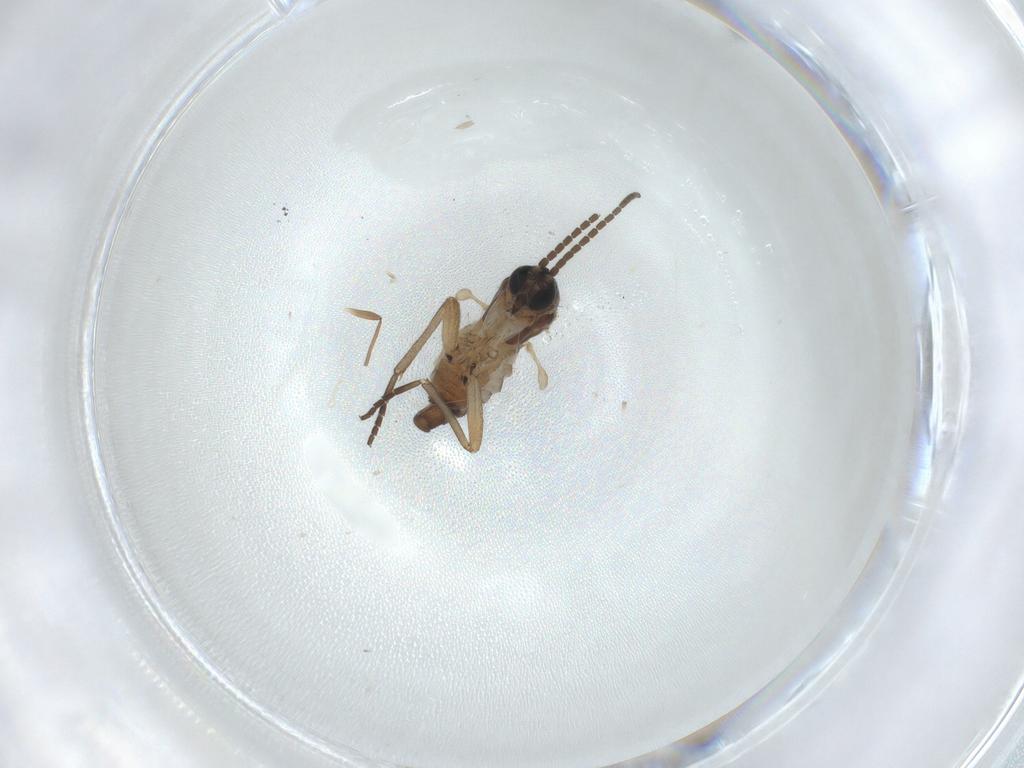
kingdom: Animalia
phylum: Arthropoda
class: Insecta
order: Diptera
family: Sciaridae
